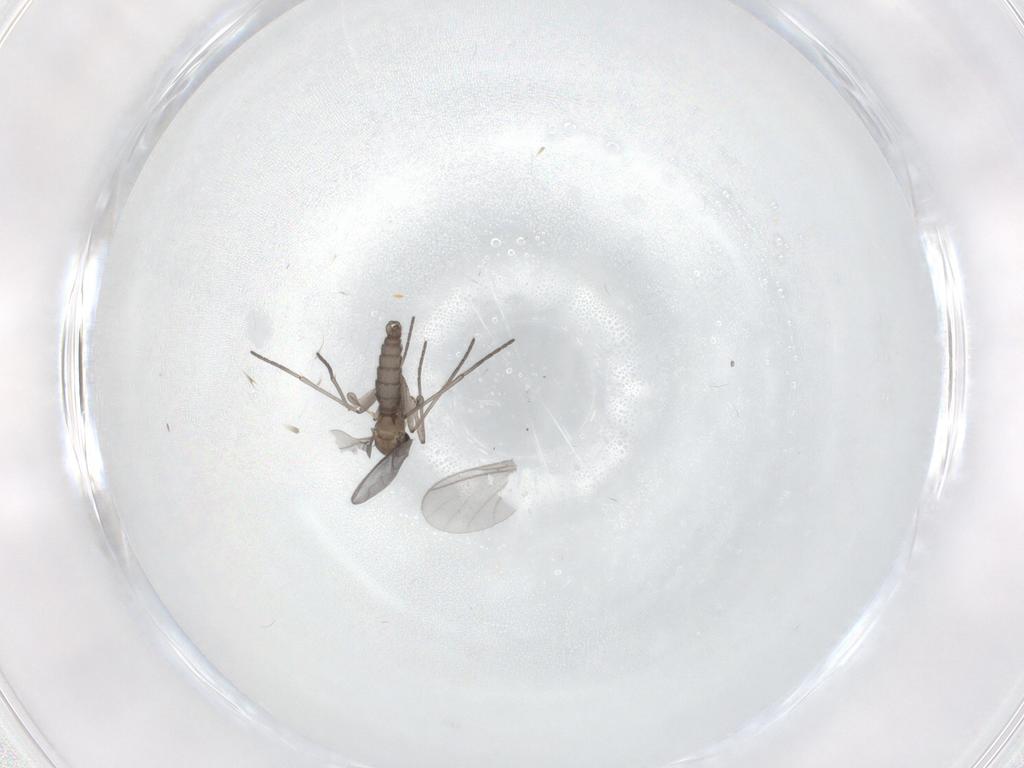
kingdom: Animalia
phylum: Arthropoda
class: Insecta
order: Diptera
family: Chironomidae
